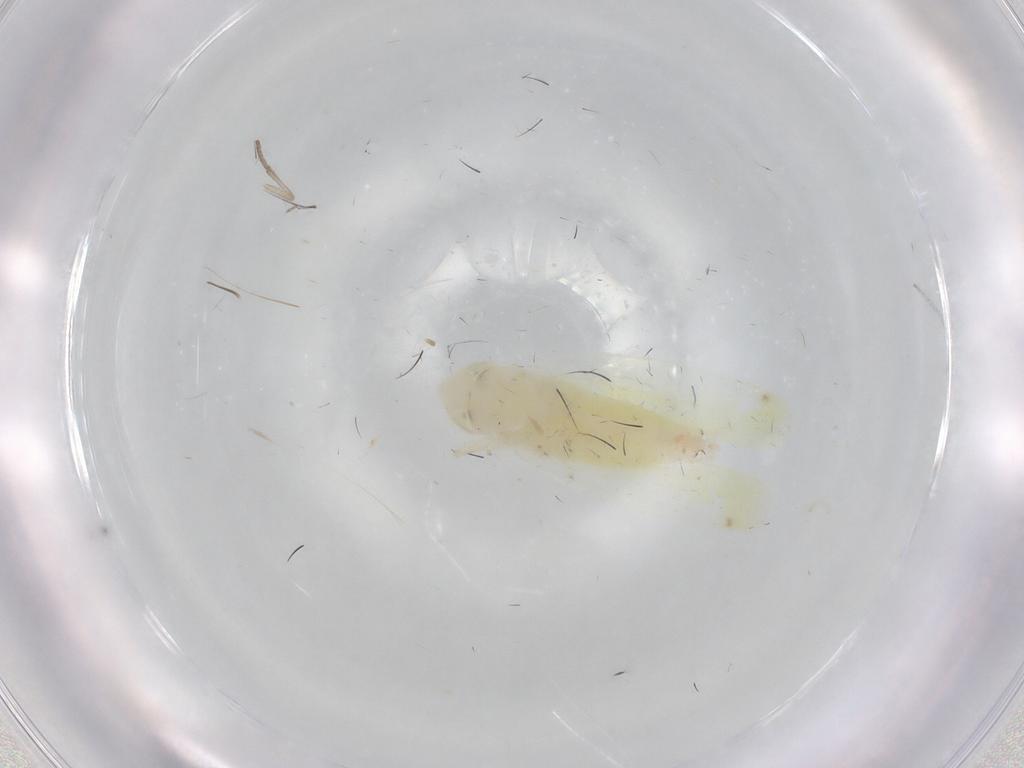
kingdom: Animalia
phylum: Arthropoda
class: Insecta
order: Hemiptera
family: Cicadellidae
